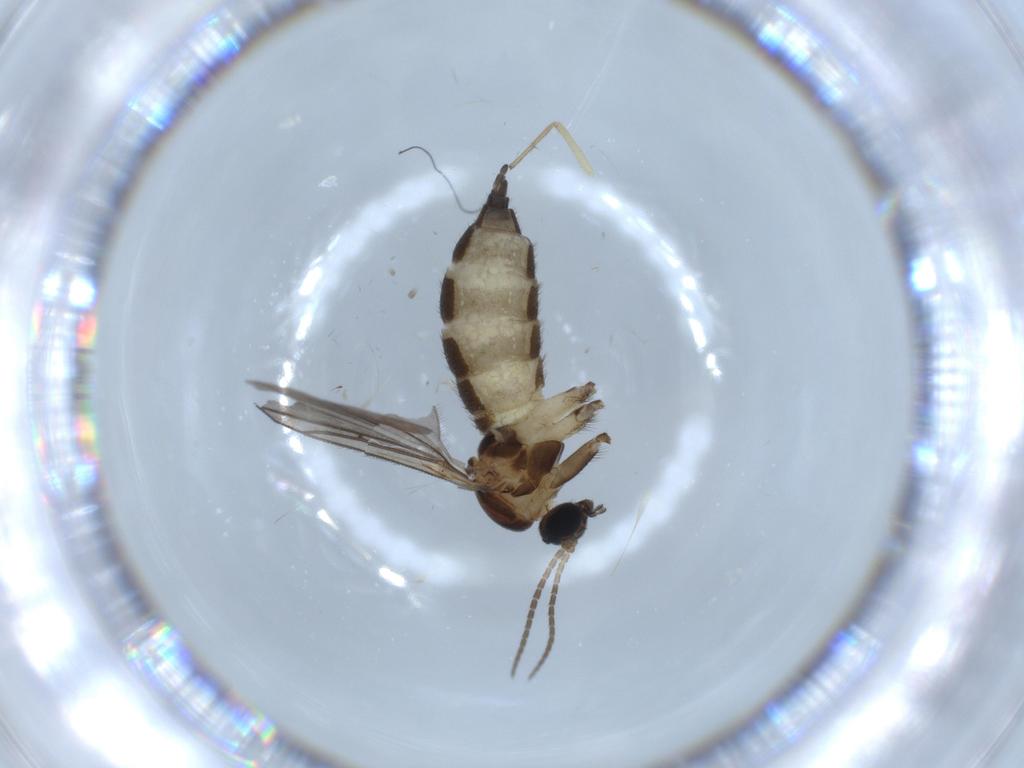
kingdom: Animalia
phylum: Arthropoda
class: Insecta
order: Diptera
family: Sciaridae
